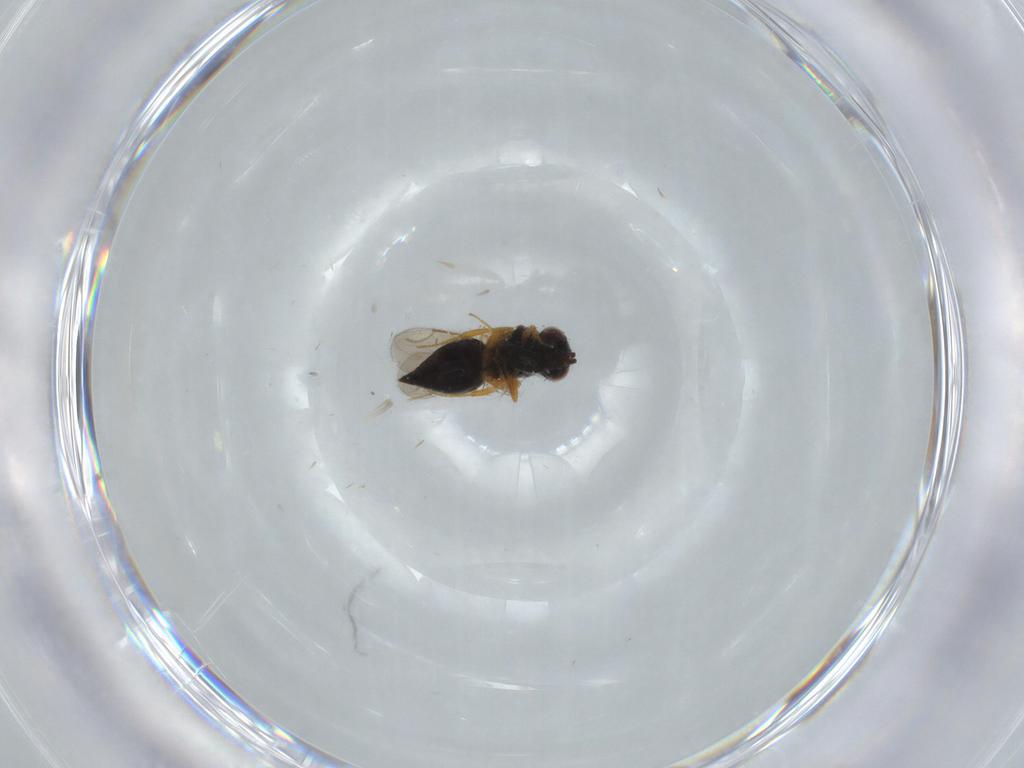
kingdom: Animalia
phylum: Arthropoda
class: Insecta
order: Hymenoptera
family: Ceraphronidae
